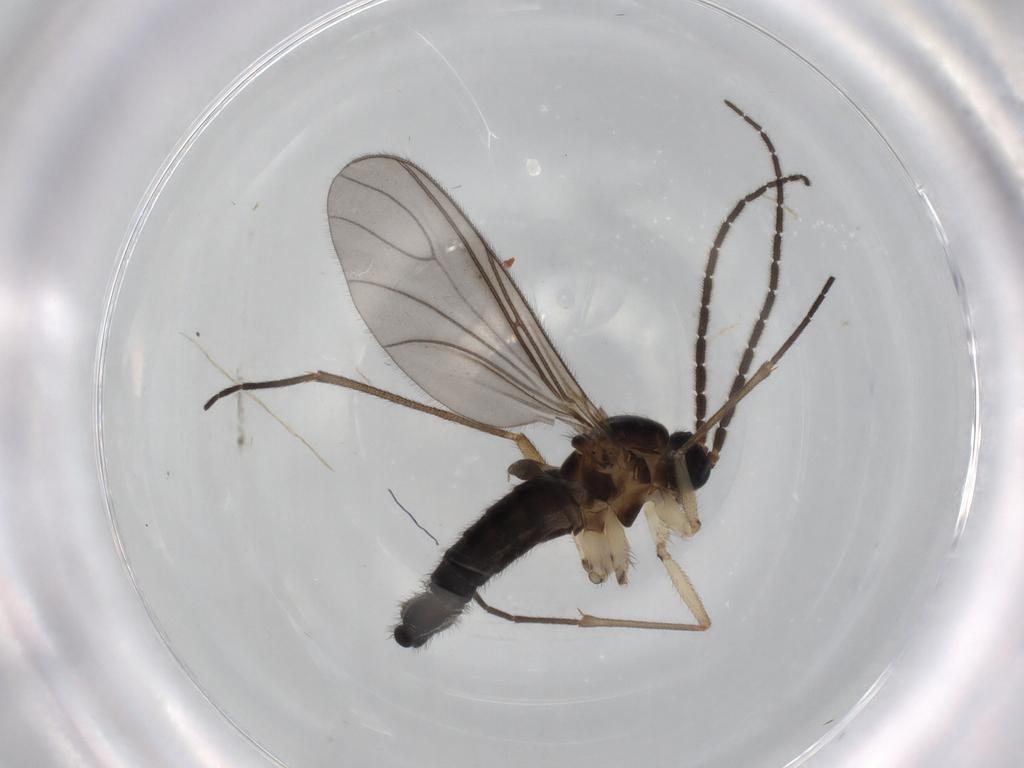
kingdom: Animalia
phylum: Arthropoda
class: Insecta
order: Diptera
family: Sciaridae
